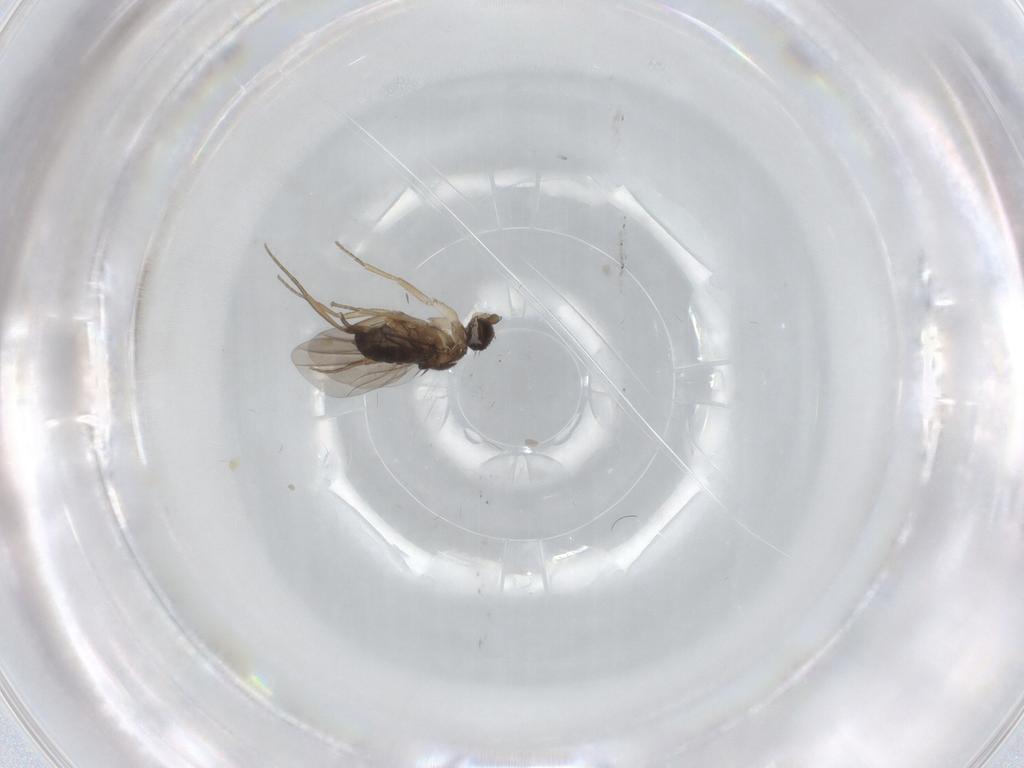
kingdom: Animalia
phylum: Arthropoda
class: Insecta
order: Diptera
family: Phoridae
